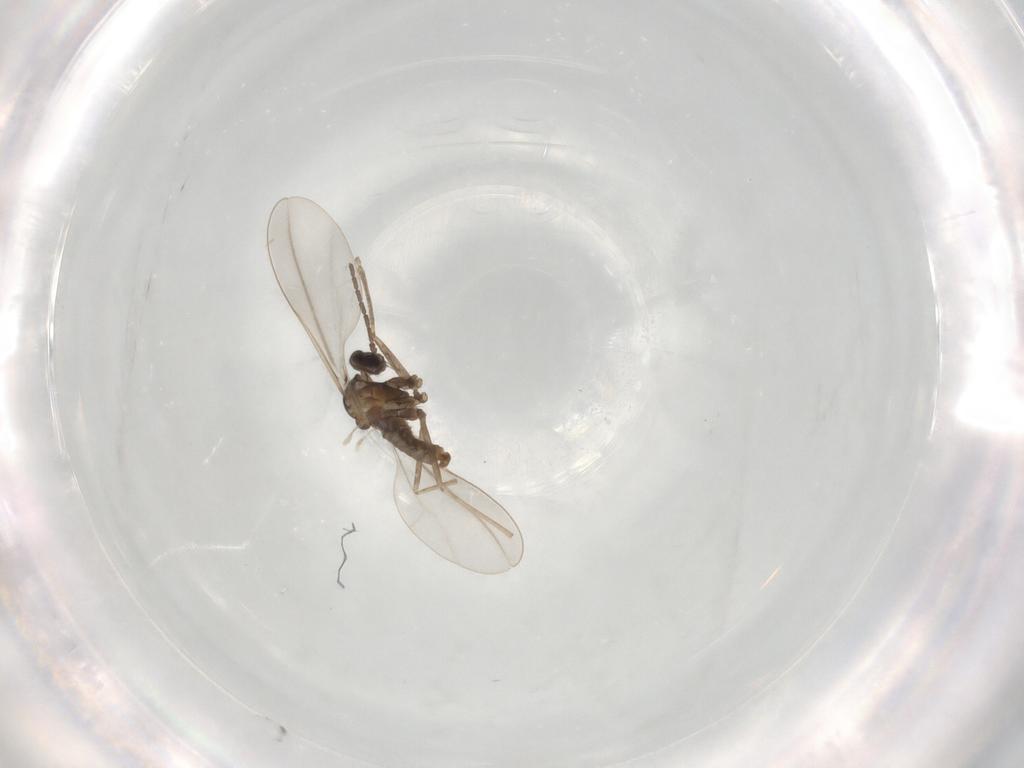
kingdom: Animalia
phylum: Arthropoda
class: Insecta
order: Diptera
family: Cecidomyiidae
